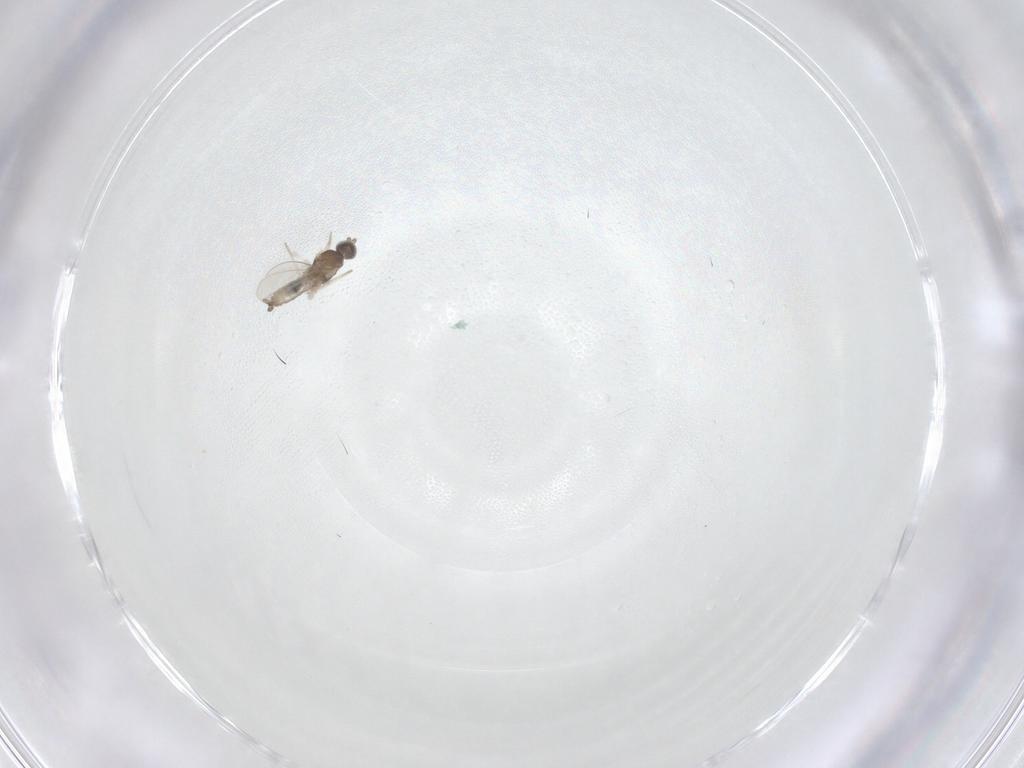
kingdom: Animalia
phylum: Arthropoda
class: Insecta
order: Diptera
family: Cecidomyiidae
